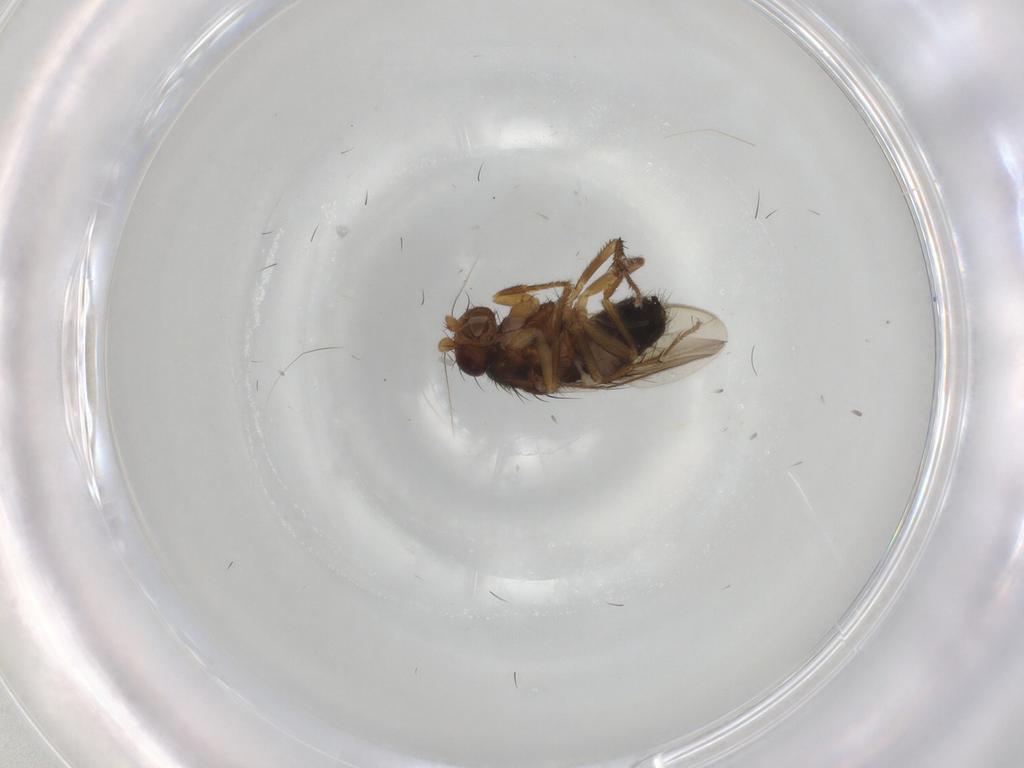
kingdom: Animalia
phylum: Arthropoda
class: Insecta
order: Diptera
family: Sphaeroceridae
